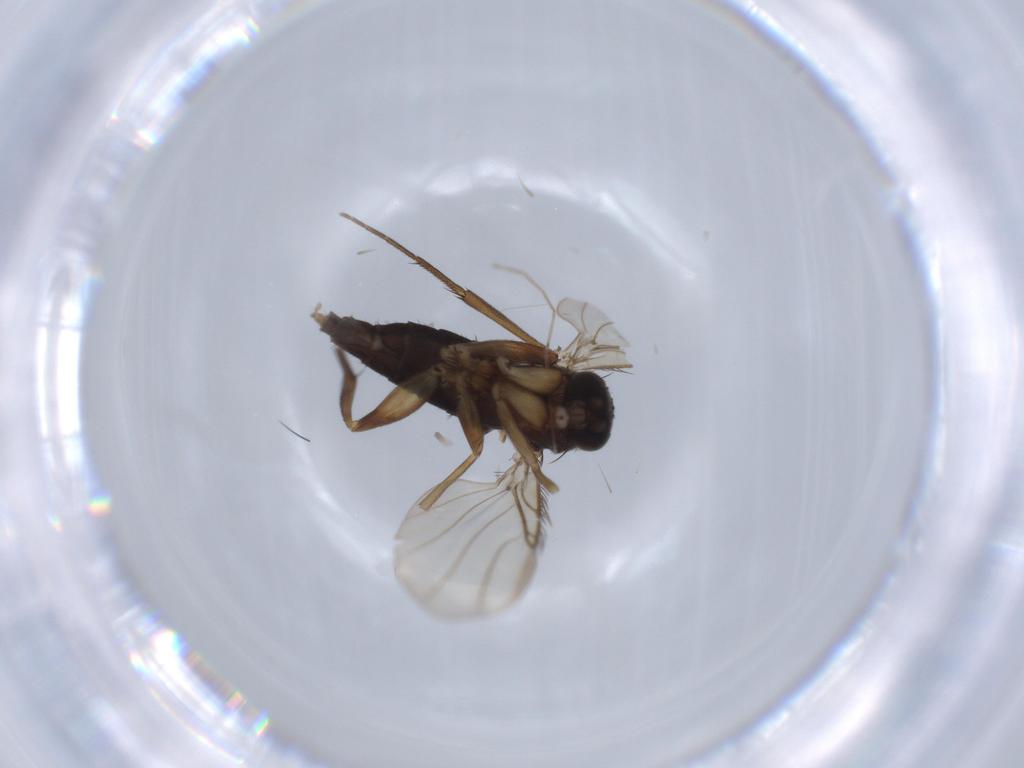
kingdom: Animalia
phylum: Arthropoda
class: Insecta
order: Diptera
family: Phoridae
